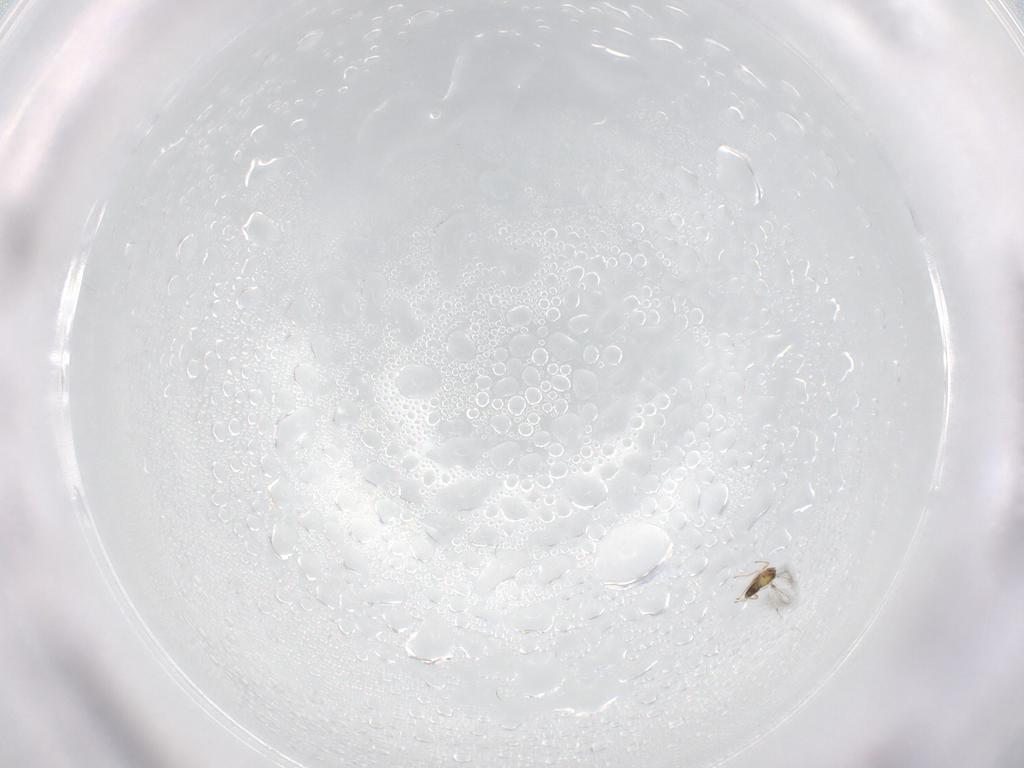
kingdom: Animalia
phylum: Arthropoda
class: Insecta
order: Hymenoptera
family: Mymaridae
